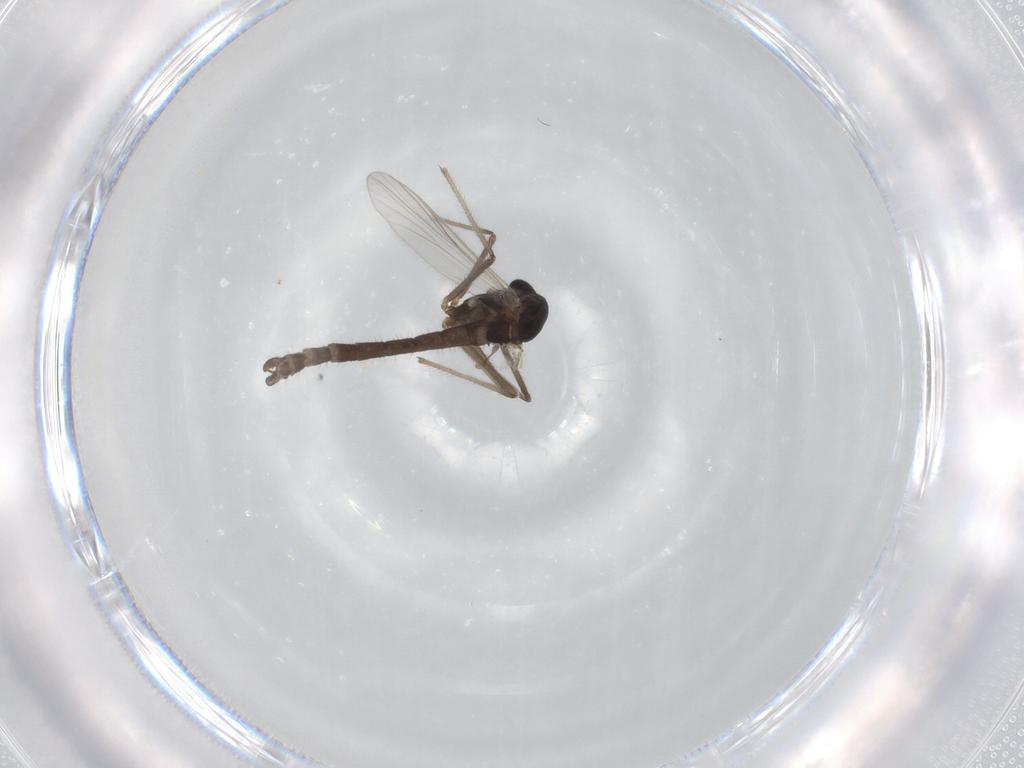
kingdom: Animalia
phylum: Arthropoda
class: Insecta
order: Diptera
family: Chironomidae
